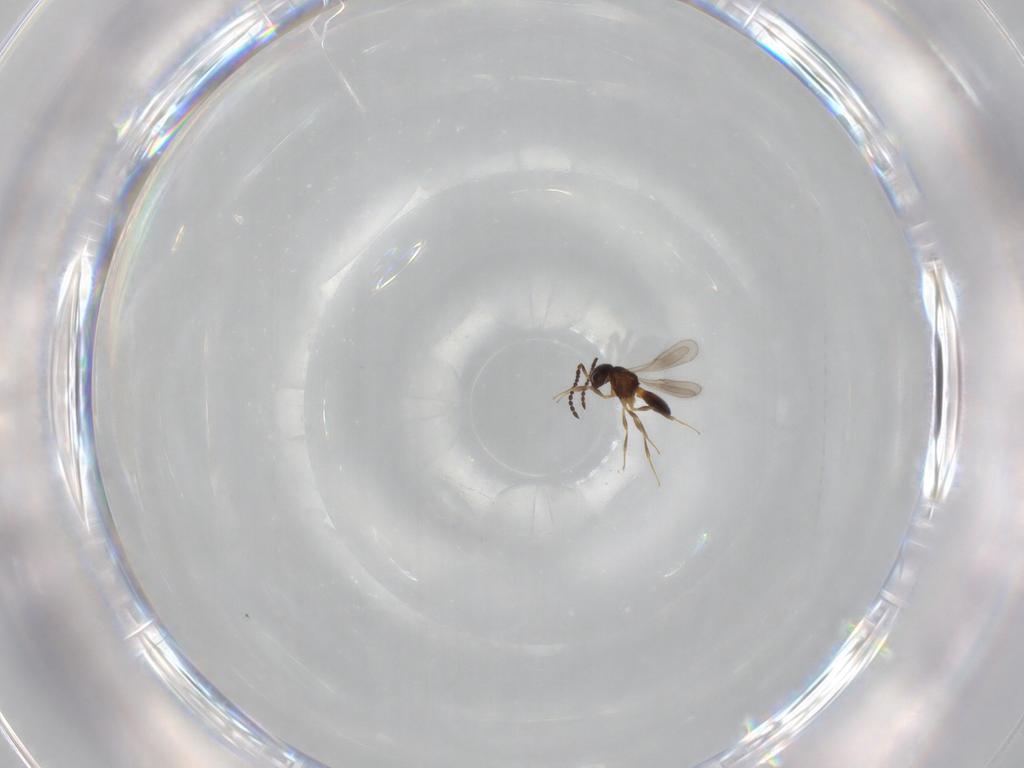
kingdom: Animalia
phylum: Arthropoda
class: Insecta
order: Hymenoptera
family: Scelionidae
